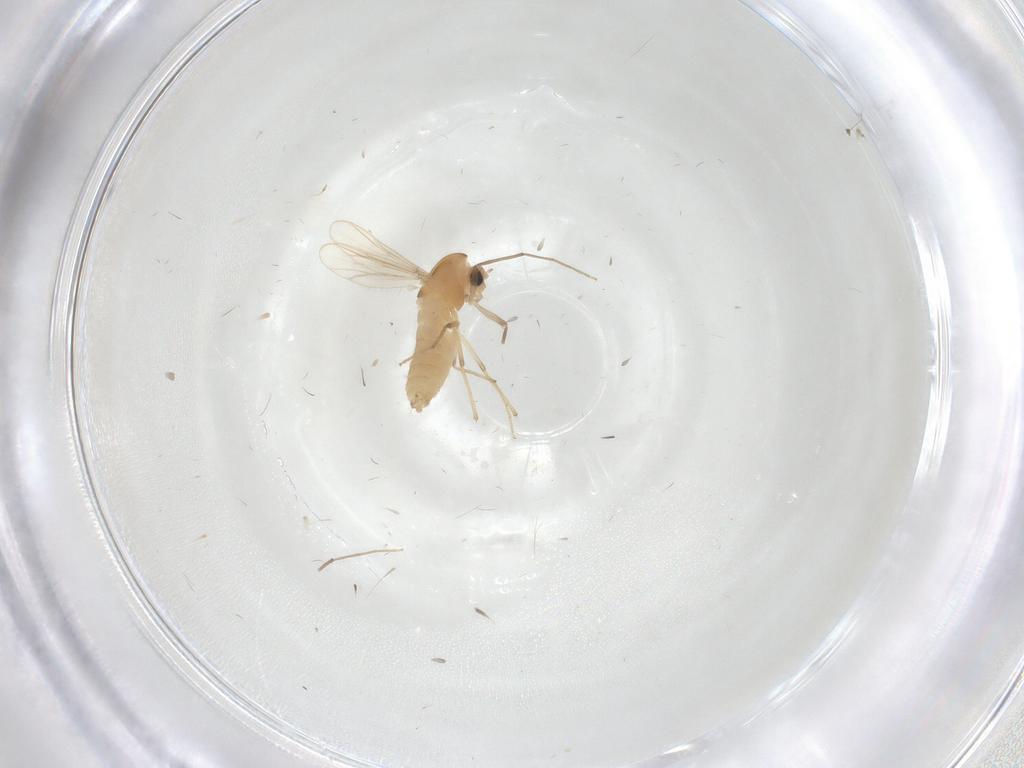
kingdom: Animalia
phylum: Arthropoda
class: Insecta
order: Diptera
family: Chironomidae
